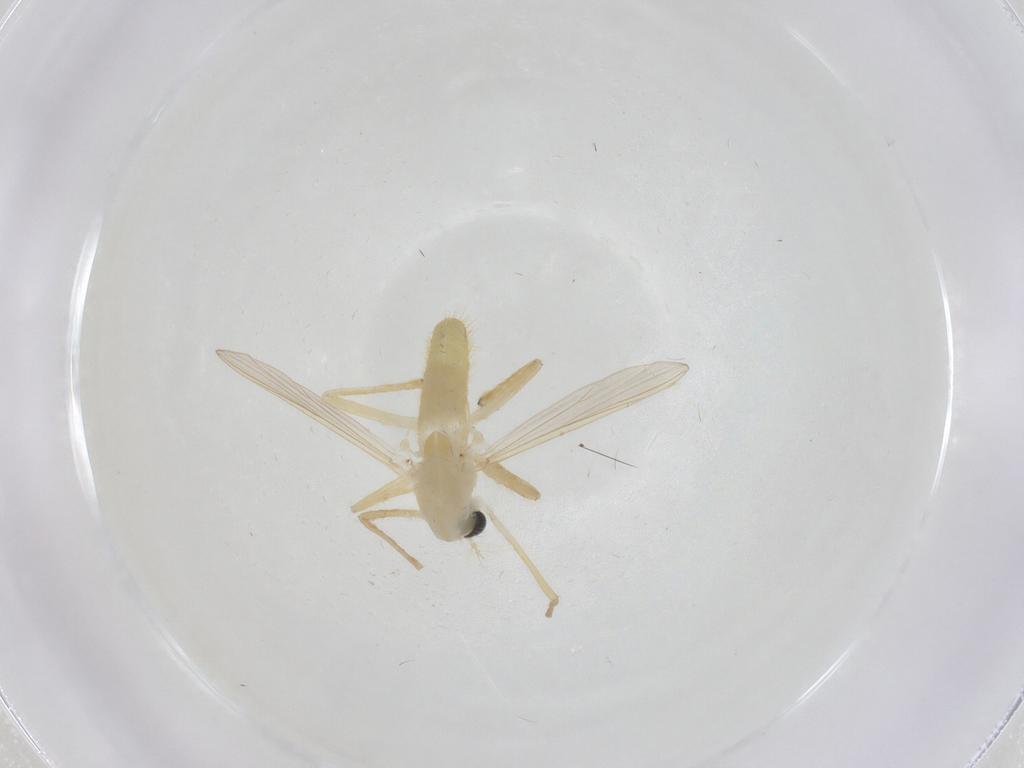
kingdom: Animalia
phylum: Arthropoda
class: Insecta
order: Diptera
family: Chironomidae
